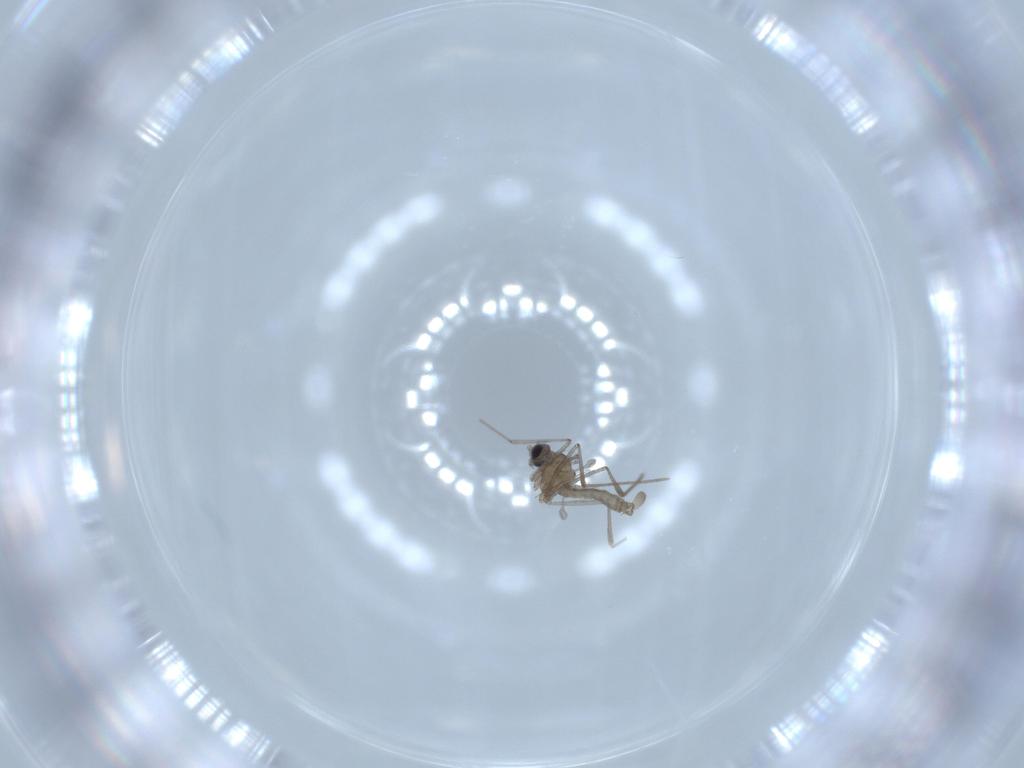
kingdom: Animalia
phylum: Arthropoda
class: Insecta
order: Diptera
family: Cecidomyiidae
